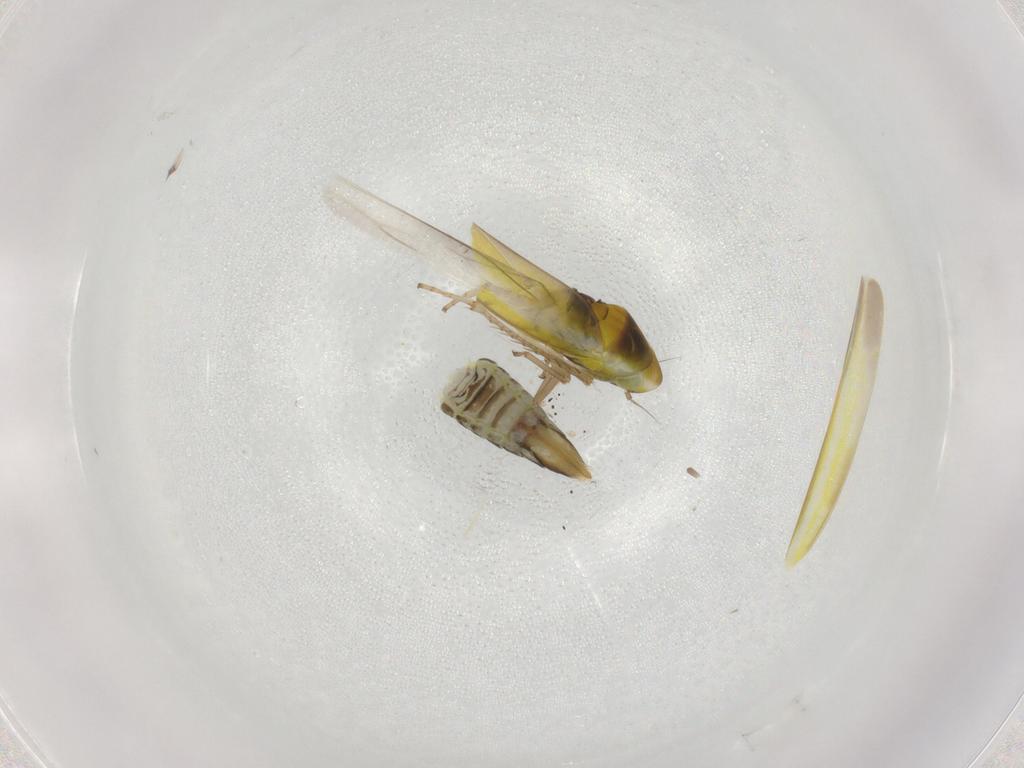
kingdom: Animalia
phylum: Arthropoda
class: Insecta
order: Hemiptera
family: Cicadellidae
